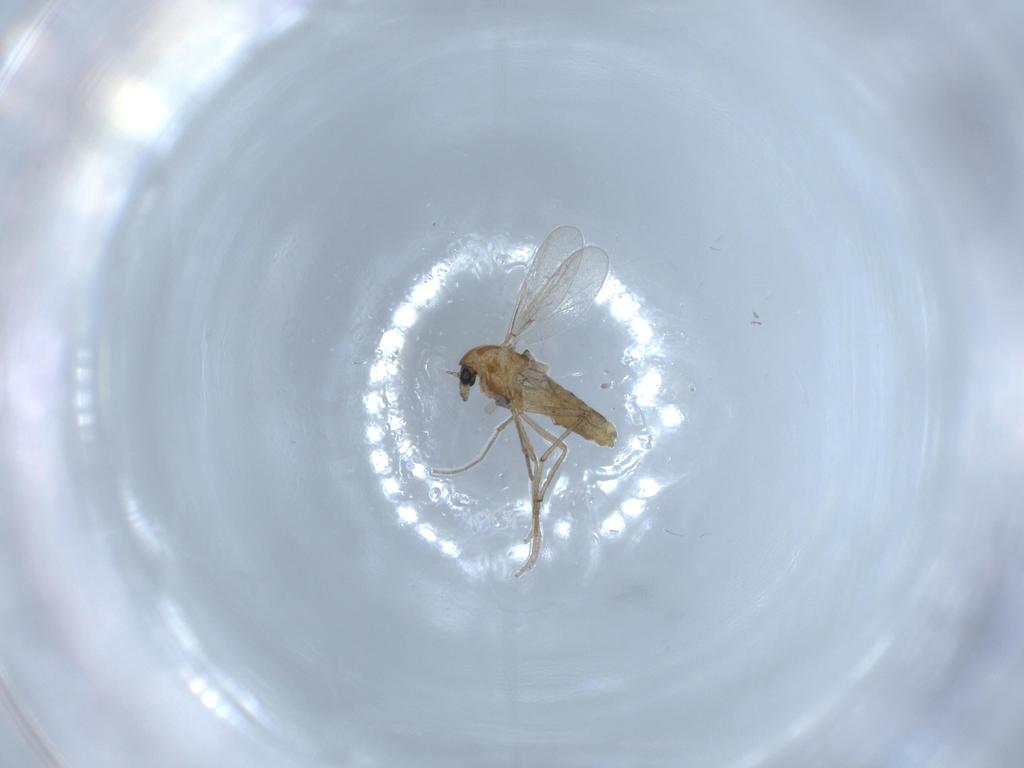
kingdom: Animalia
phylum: Arthropoda
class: Insecta
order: Diptera
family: Chironomidae
